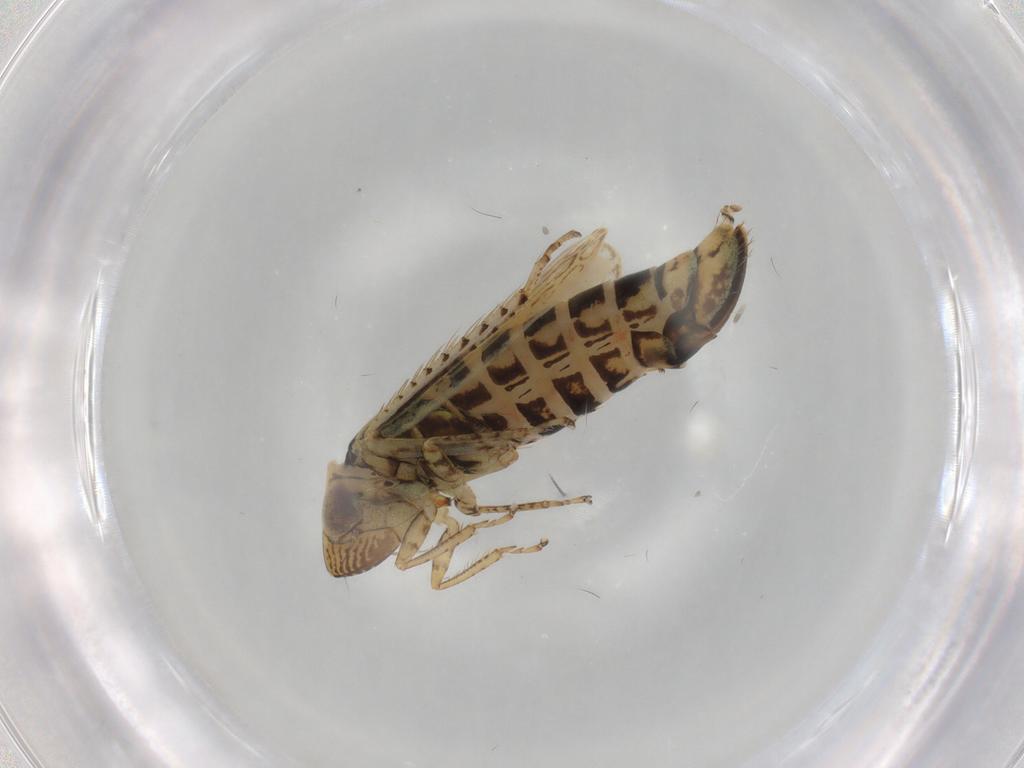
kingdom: Animalia
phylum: Arthropoda
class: Insecta
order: Hemiptera
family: Cicadellidae
